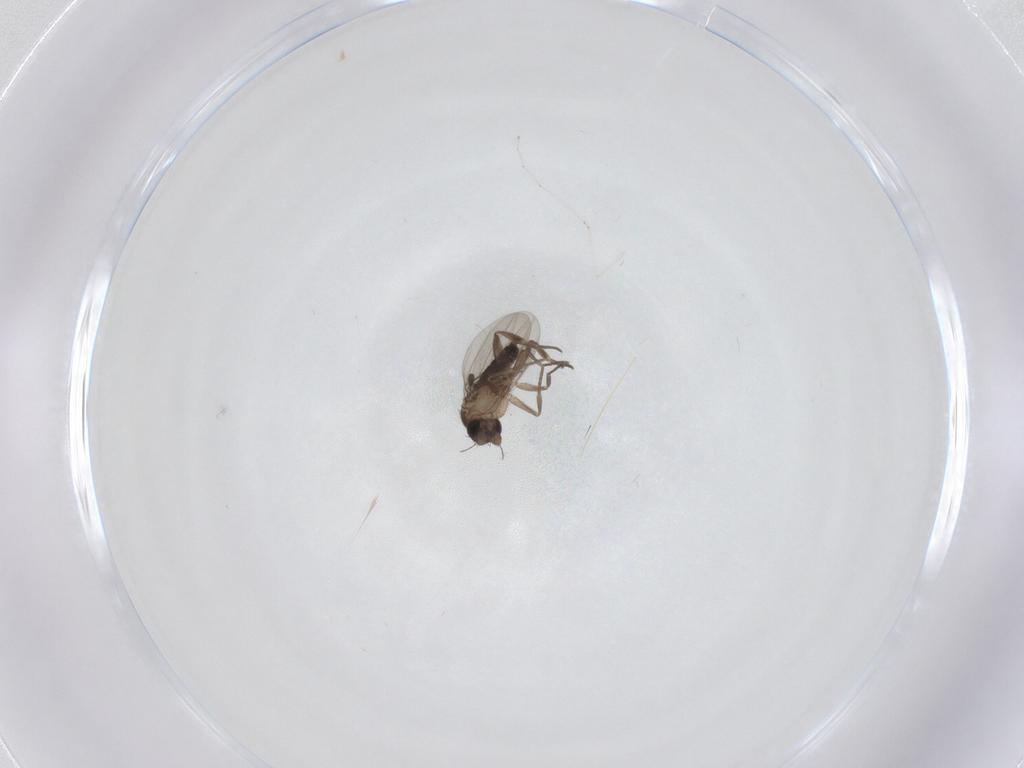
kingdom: Animalia
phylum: Arthropoda
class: Insecta
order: Diptera
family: Phoridae
